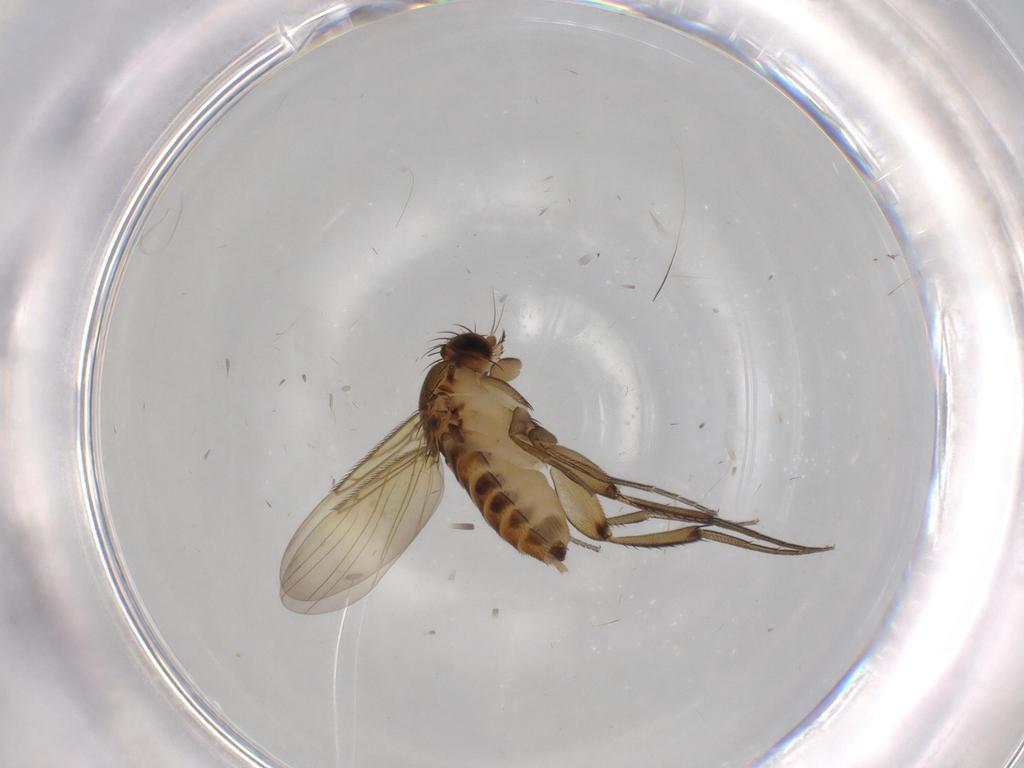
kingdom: Animalia
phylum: Arthropoda
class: Insecta
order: Diptera
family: Phoridae
